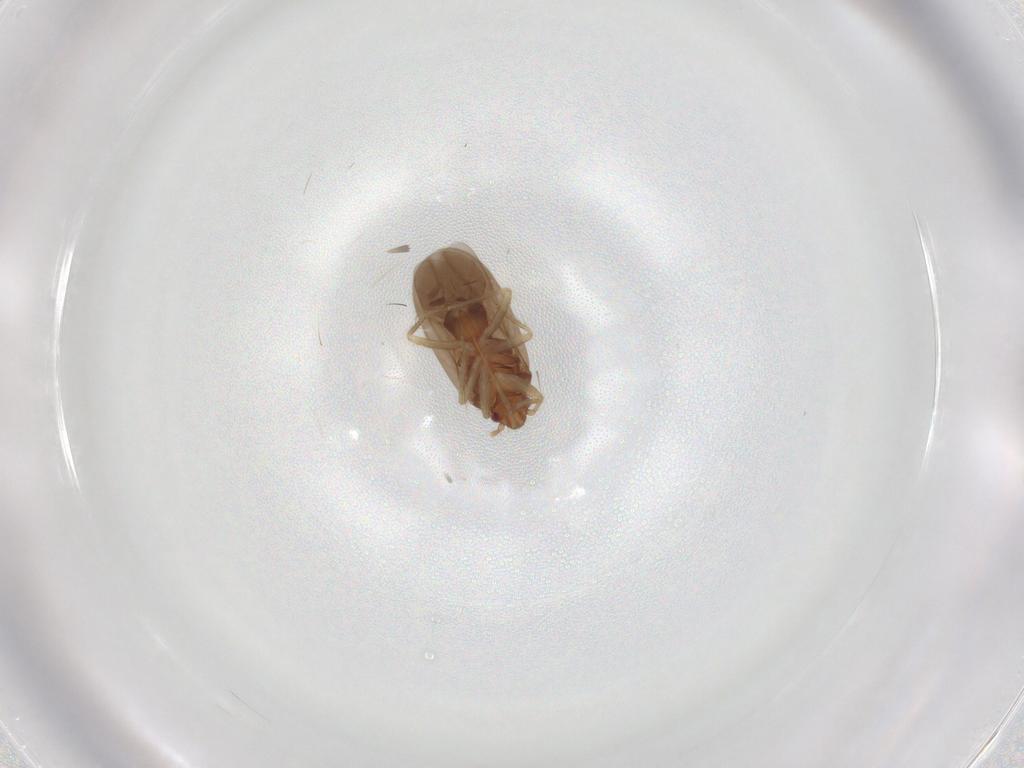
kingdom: Animalia
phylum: Arthropoda
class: Insecta
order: Hemiptera
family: Ceratocombidae
